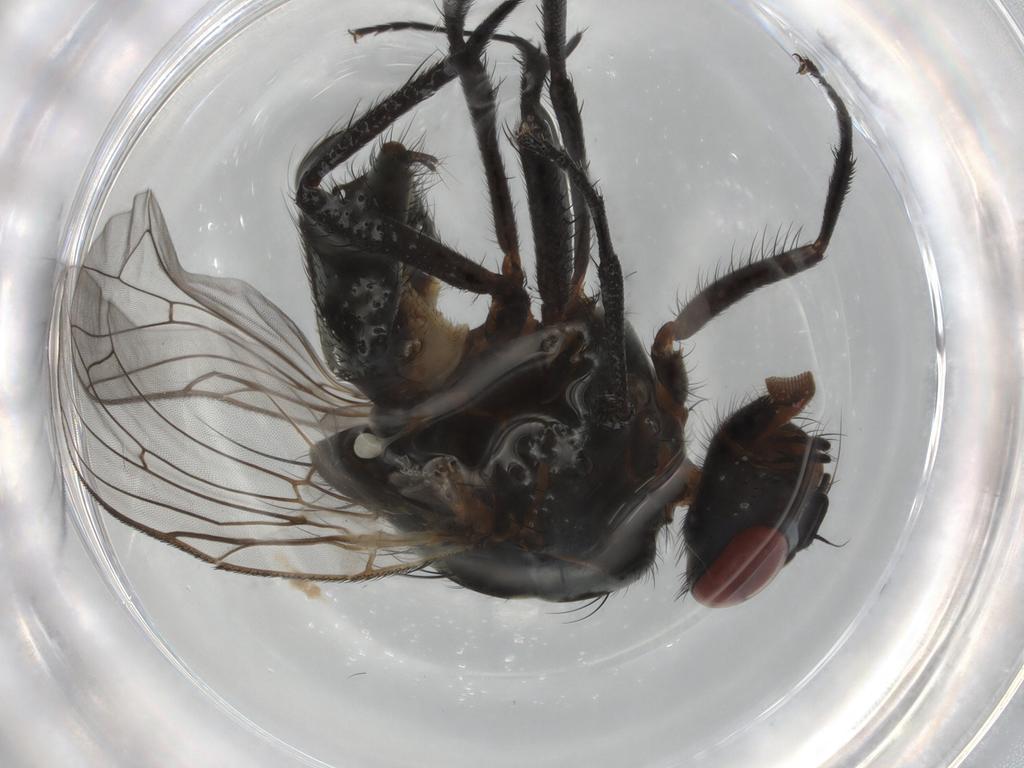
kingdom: Animalia
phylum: Arthropoda
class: Insecta
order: Diptera
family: Anthomyiidae
